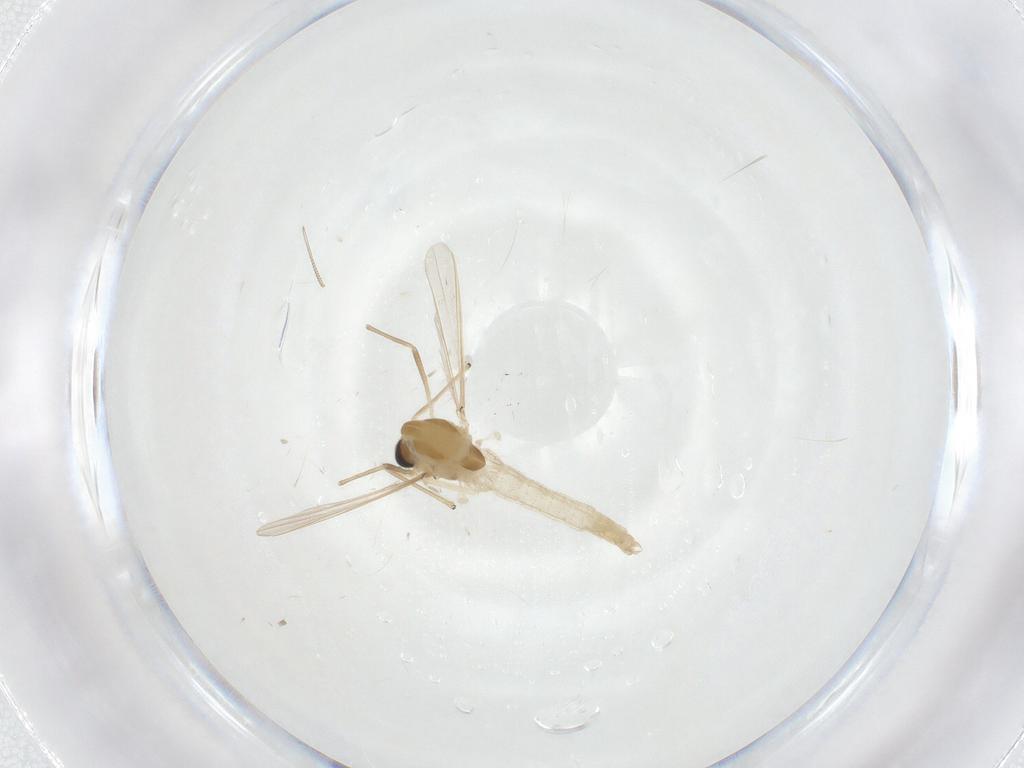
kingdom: Animalia
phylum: Arthropoda
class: Insecta
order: Diptera
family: Chironomidae
